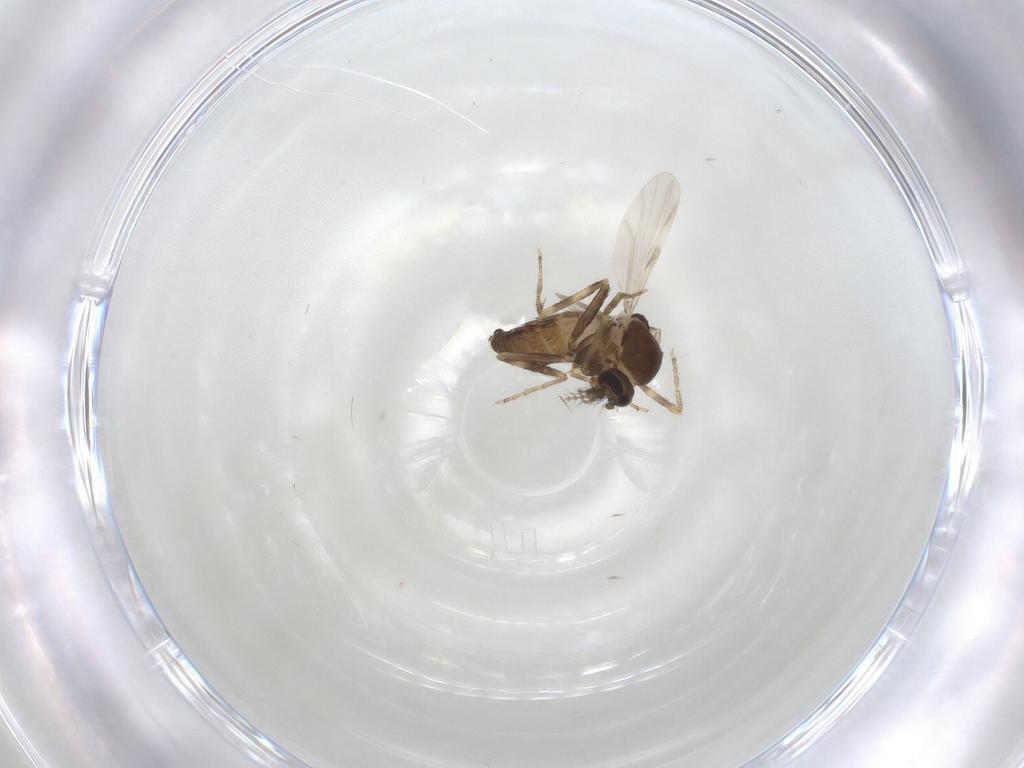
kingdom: Animalia
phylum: Arthropoda
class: Insecta
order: Diptera
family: Ceratopogonidae
